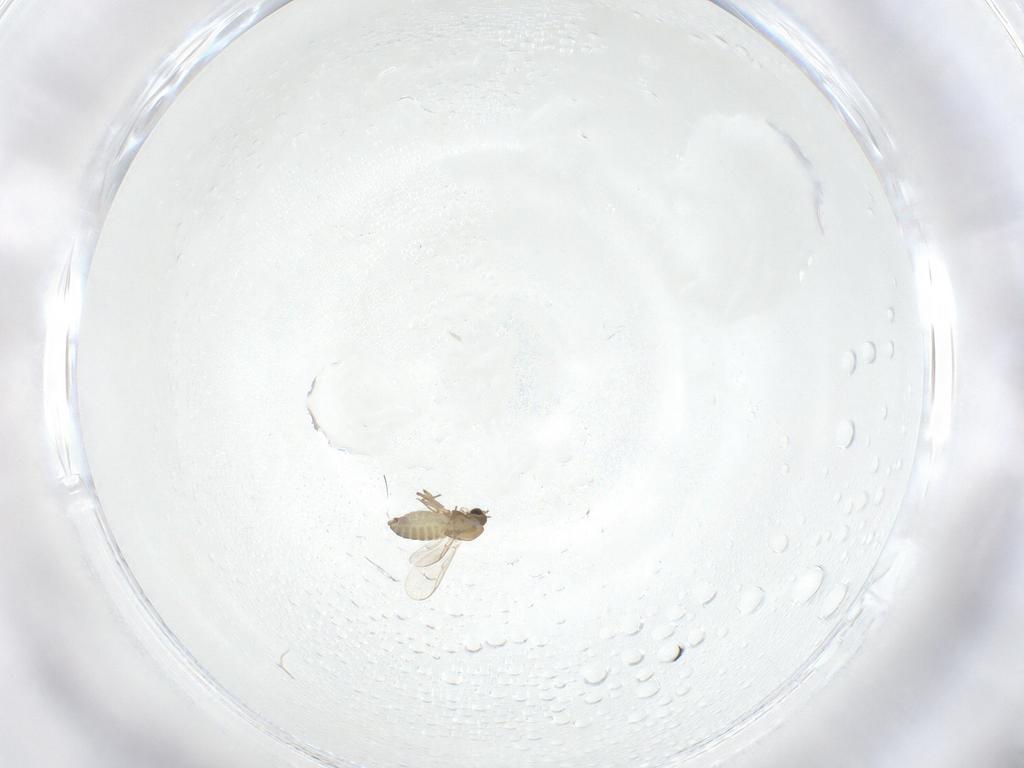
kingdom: Animalia
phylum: Arthropoda
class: Insecta
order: Diptera
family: Chironomidae
